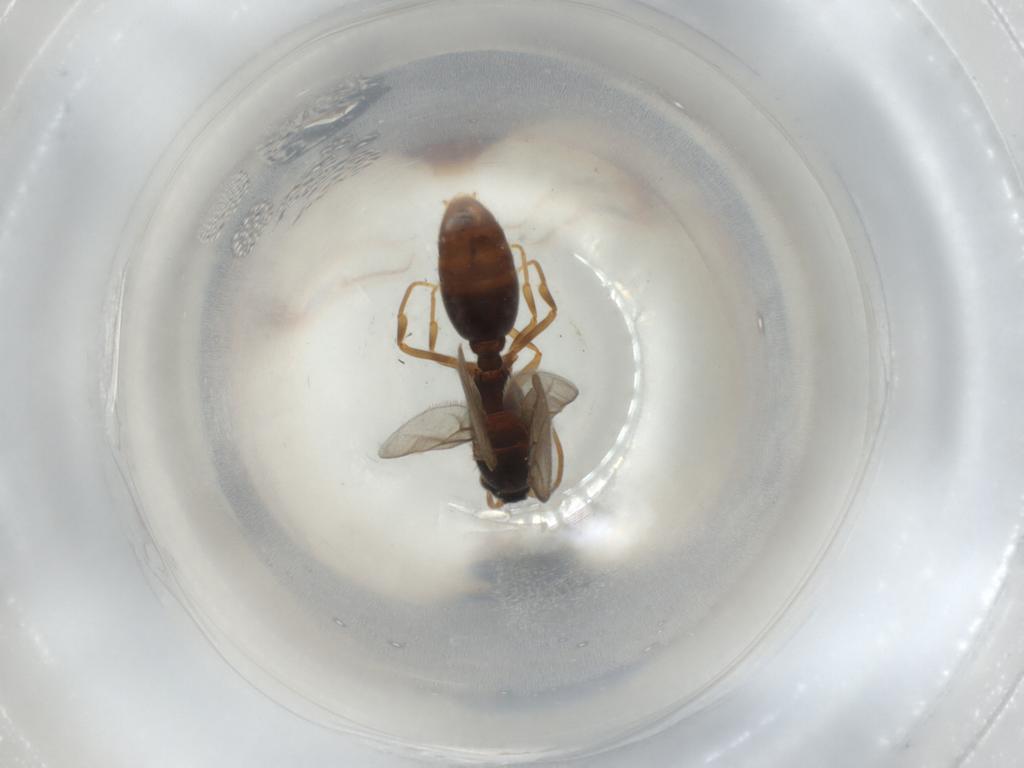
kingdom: Animalia
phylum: Arthropoda
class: Insecta
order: Hymenoptera
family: Formicidae
